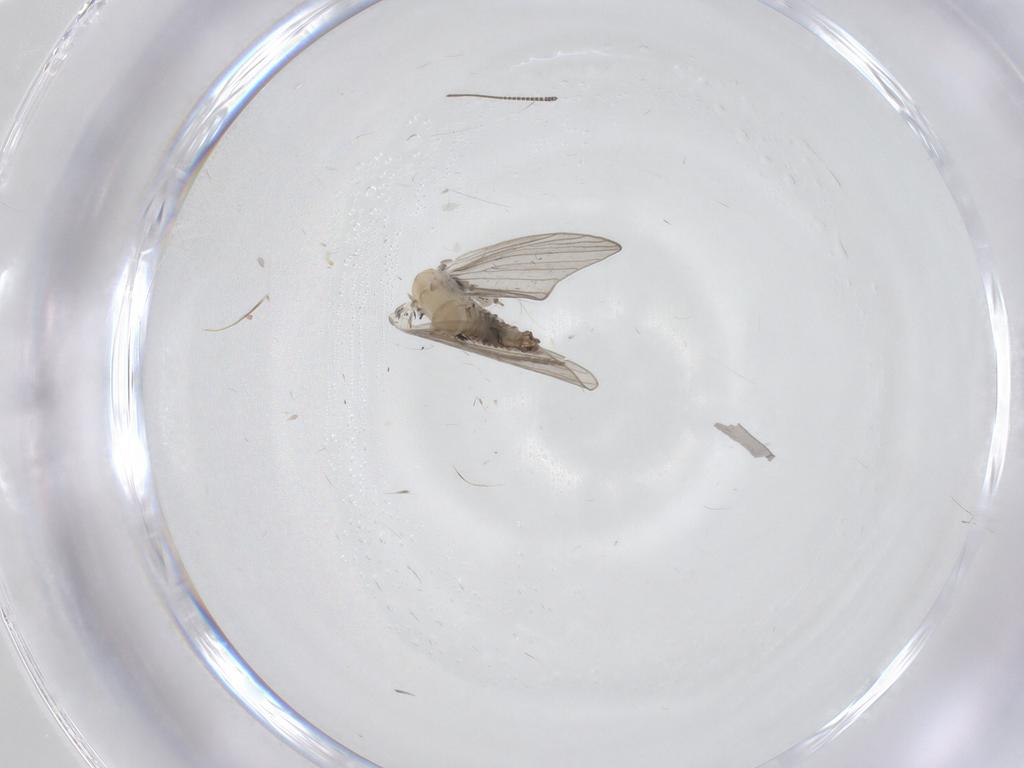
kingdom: Animalia
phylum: Arthropoda
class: Insecta
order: Diptera
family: Psychodidae
